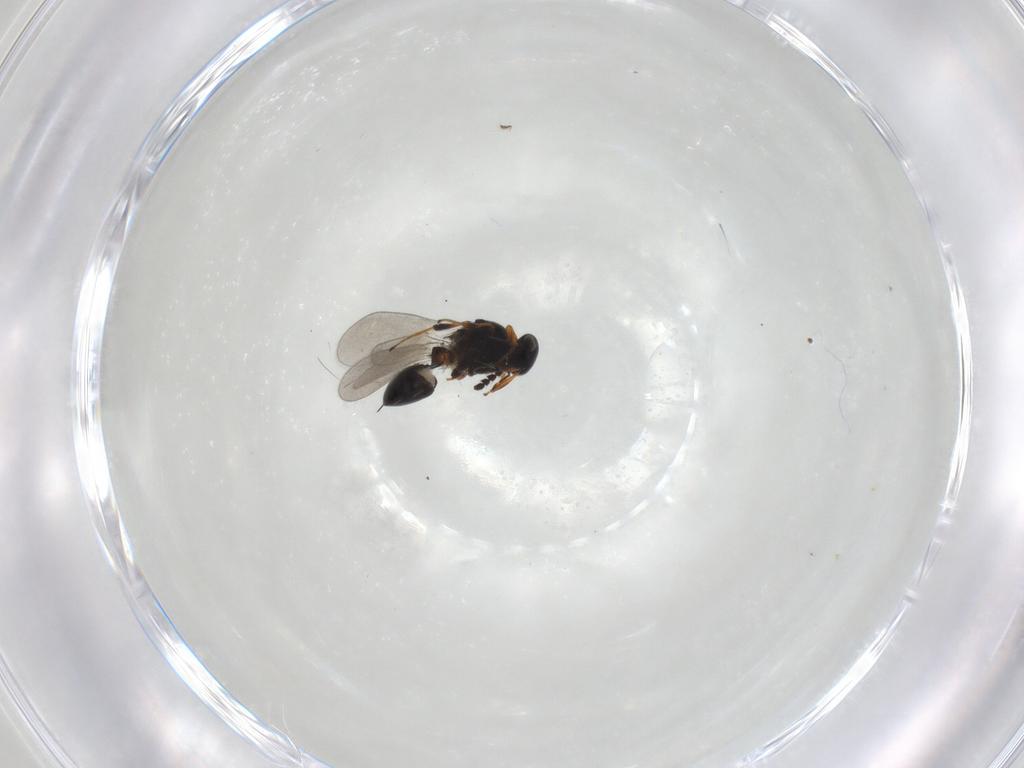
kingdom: Animalia
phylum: Arthropoda
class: Insecta
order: Hymenoptera
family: Platygastridae
